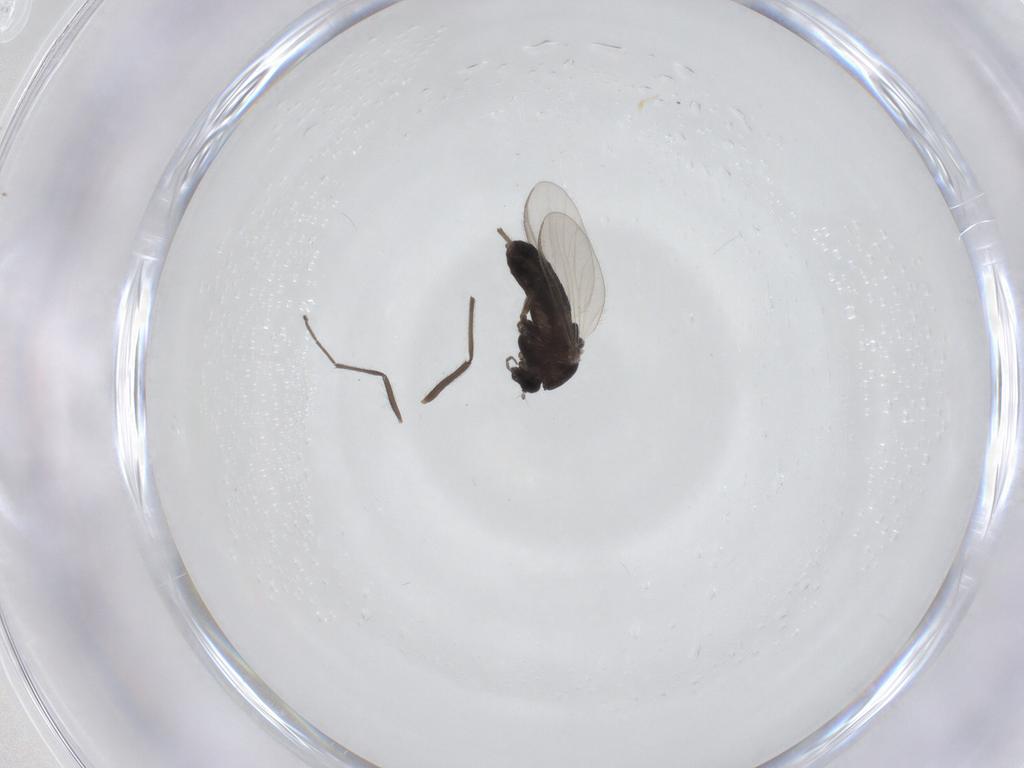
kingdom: Animalia
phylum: Arthropoda
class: Insecta
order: Diptera
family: Chironomidae
